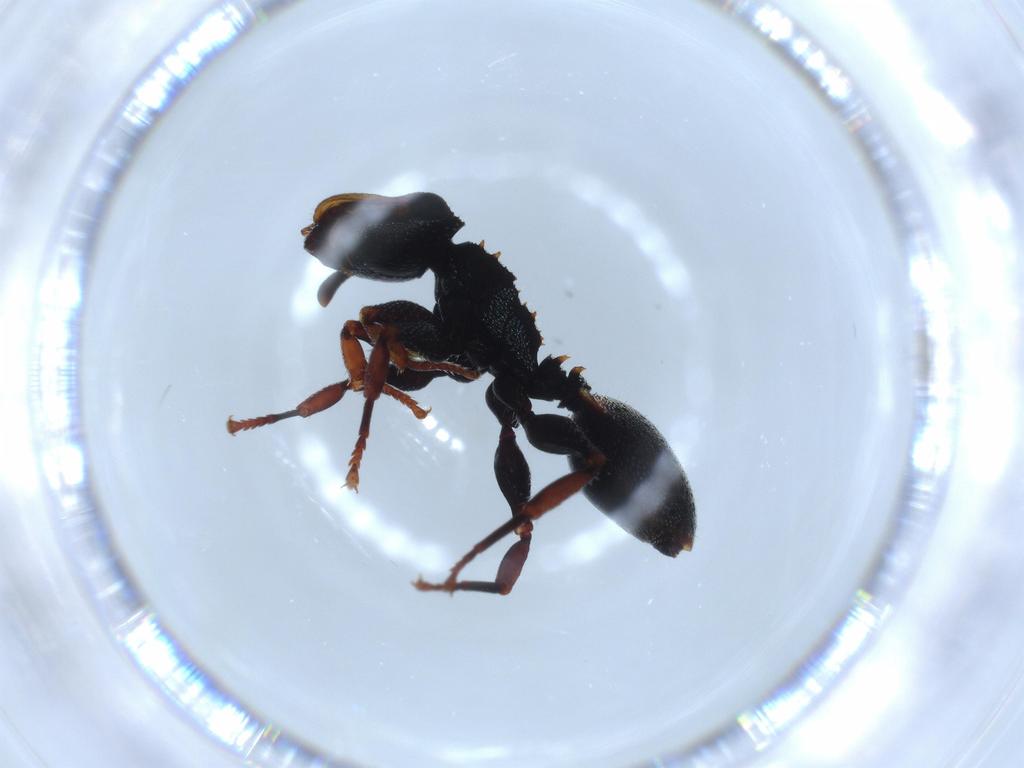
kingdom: Animalia
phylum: Arthropoda
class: Insecta
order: Hymenoptera
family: Formicidae
